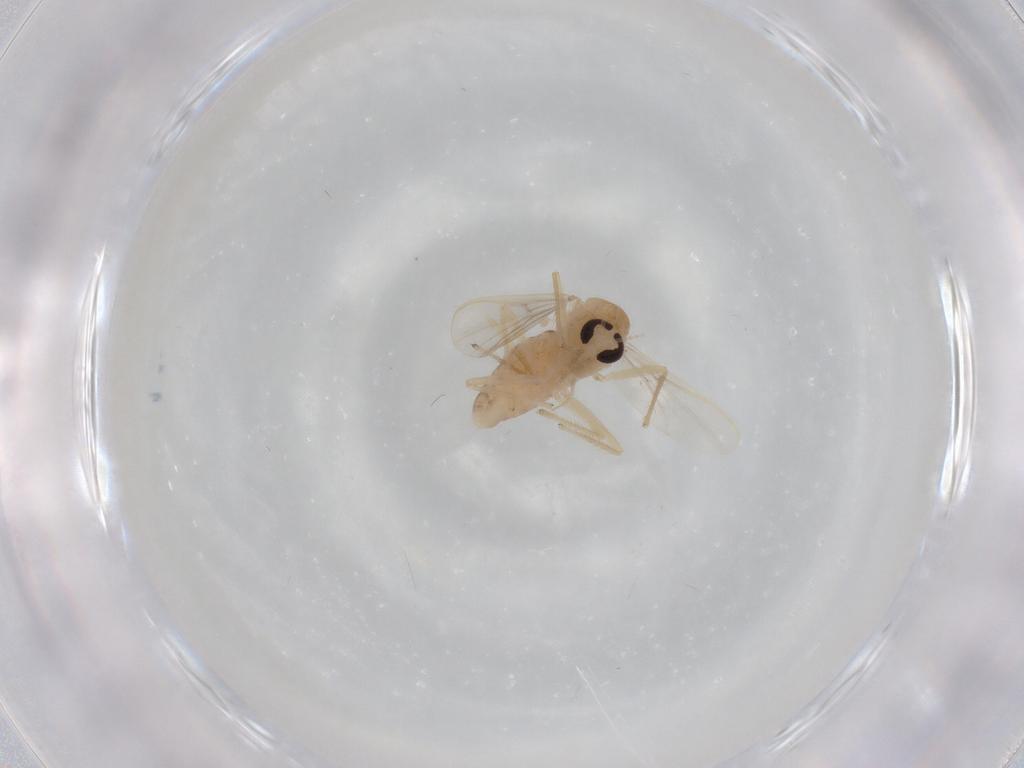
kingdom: Animalia
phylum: Arthropoda
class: Insecta
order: Diptera
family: Chironomidae
